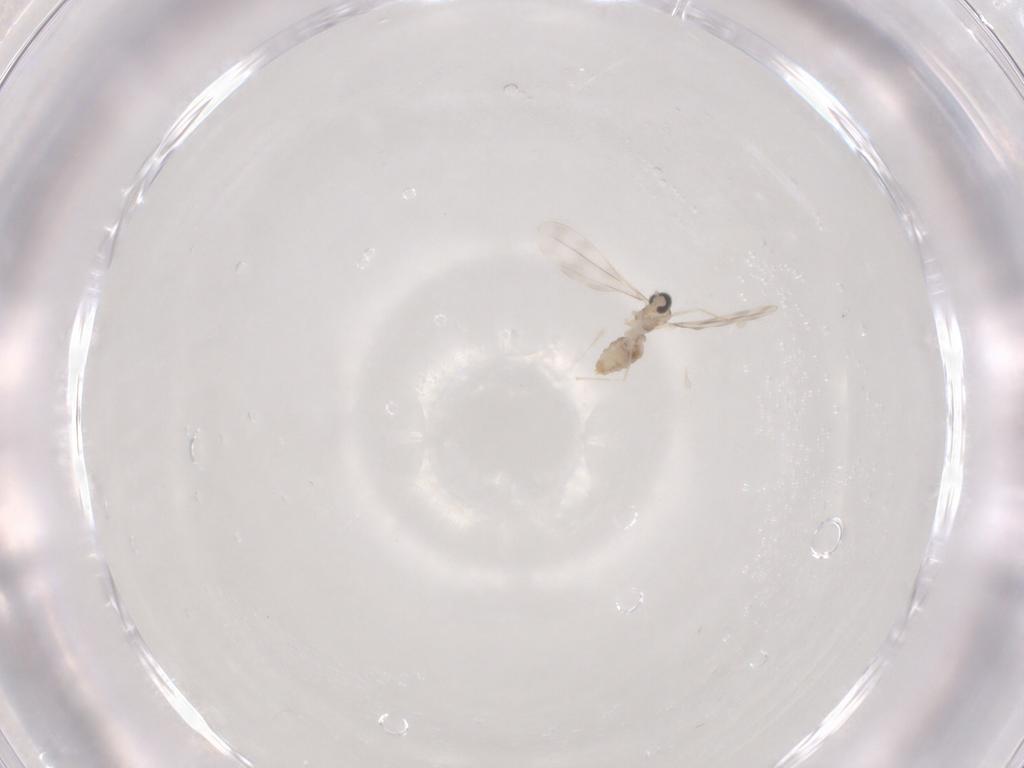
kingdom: Animalia
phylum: Arthropoda
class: Insecta
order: Diptera
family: Cecidomyiidae
